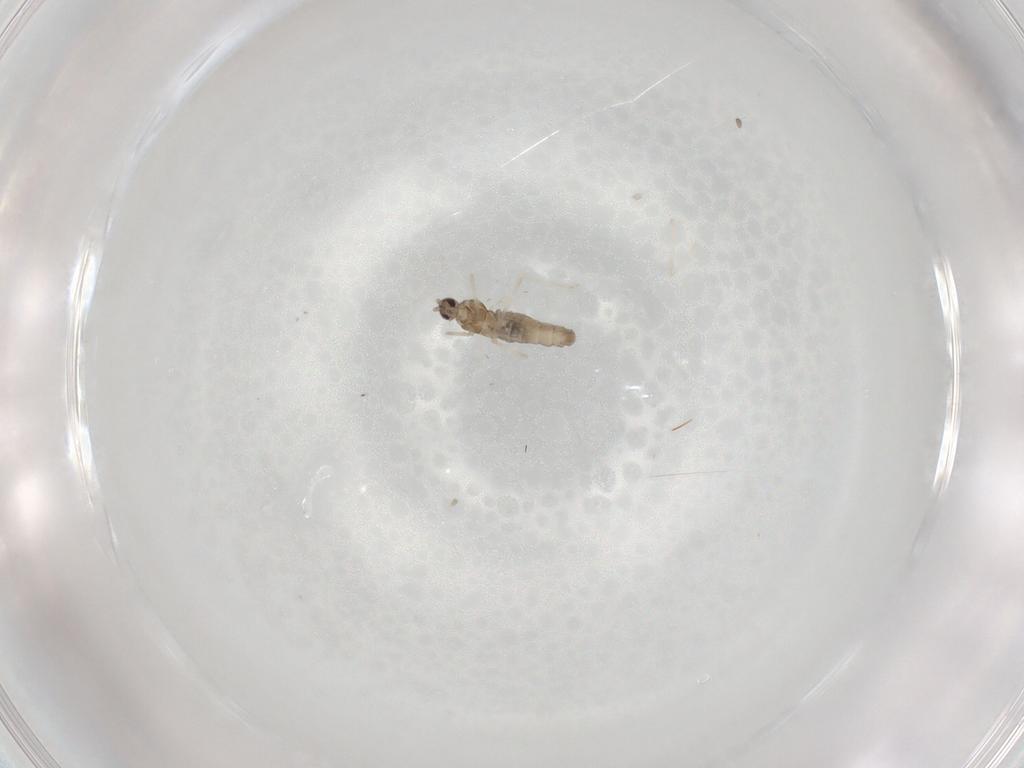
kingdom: Animalia
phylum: Arthropoda
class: Insecta
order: Diptera
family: Cecidomyiidae
